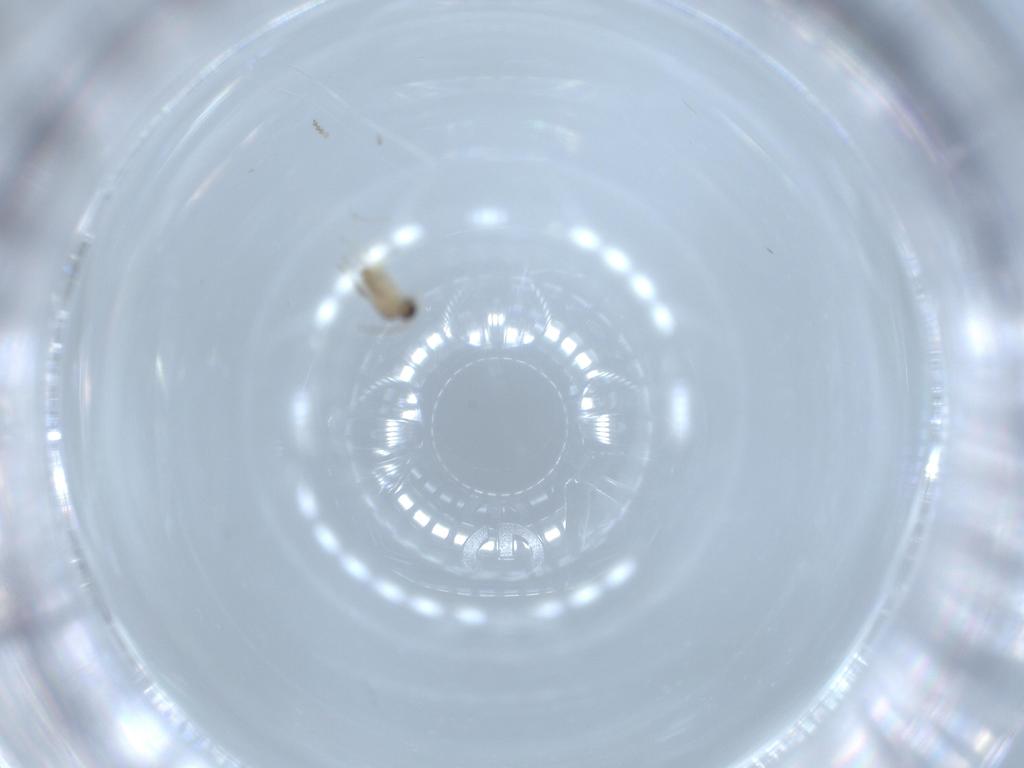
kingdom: Animalia
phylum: Arthropoda
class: Insecta
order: Diptera
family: Cecidomyiidae
